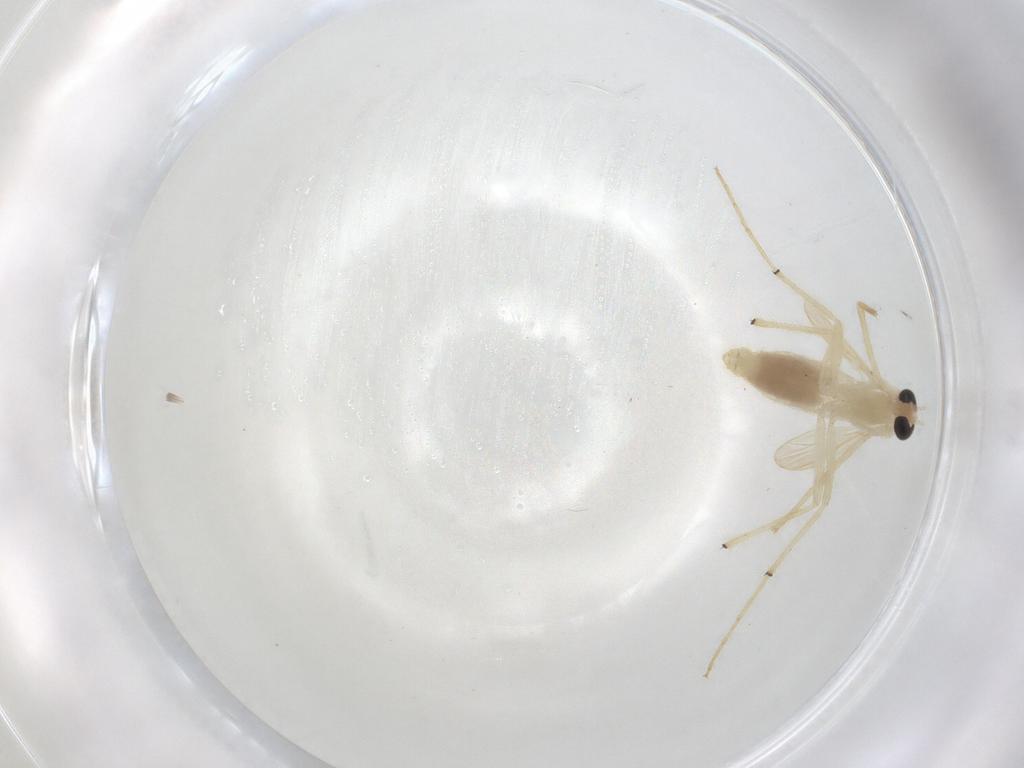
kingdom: Animalia
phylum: Arthropoda
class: Insecta
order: Diptera
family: Chironomidae
